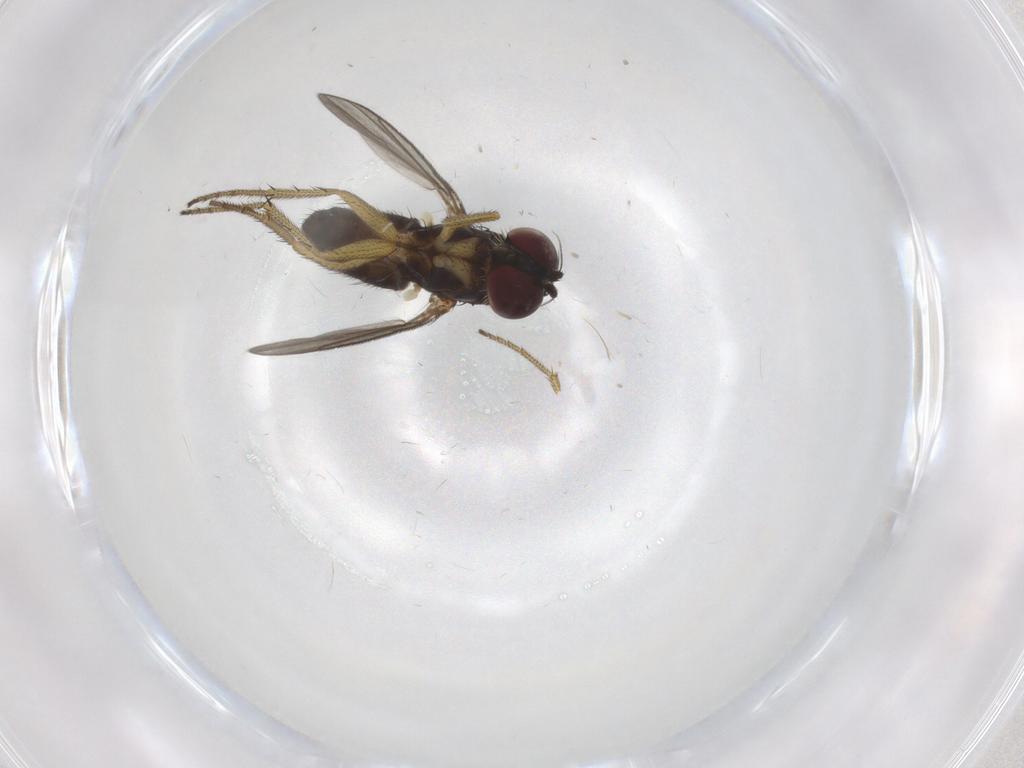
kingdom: Animalia
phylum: Arthropoda
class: Insecta
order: Diptera
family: Dolichopodidae
